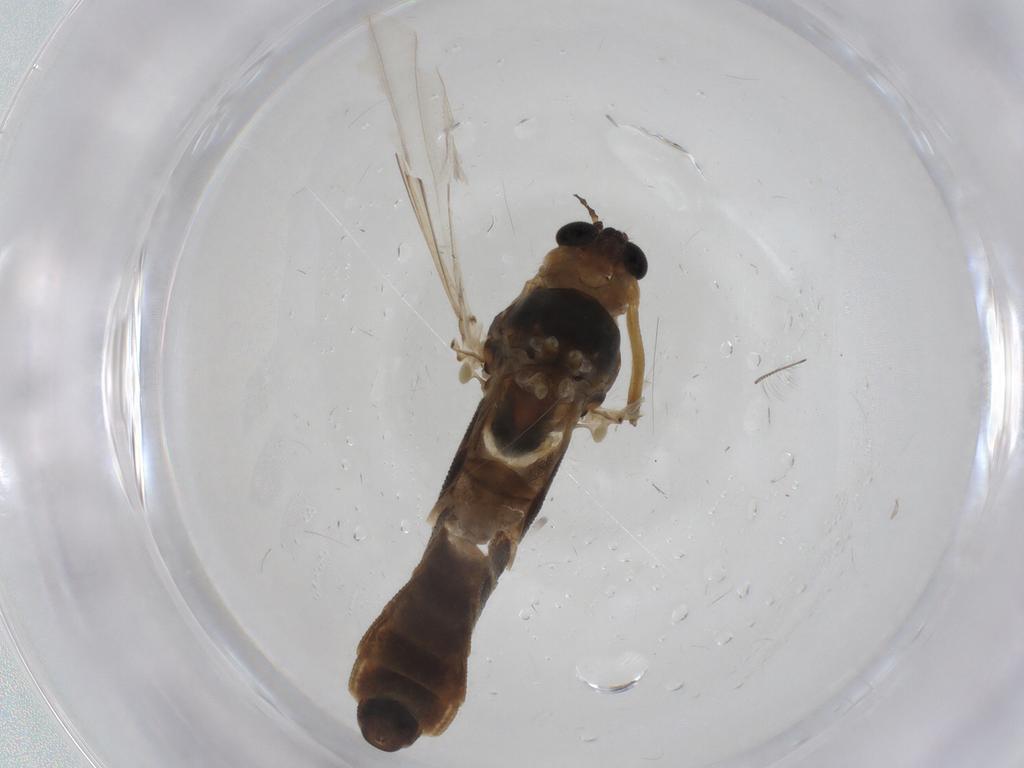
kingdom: Animalia
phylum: Arthropoda
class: Insecta
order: Diptera
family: Chironomidae
